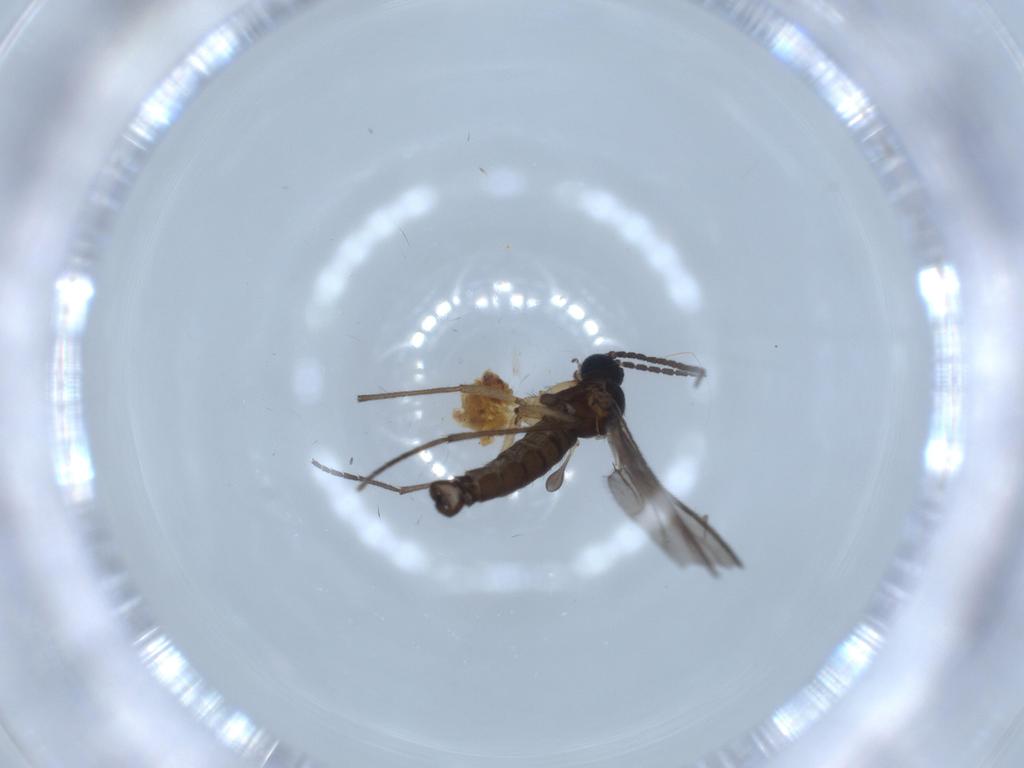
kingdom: Animalia
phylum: Arthropoda
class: Insecta
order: Diptera
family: Sciaridae
